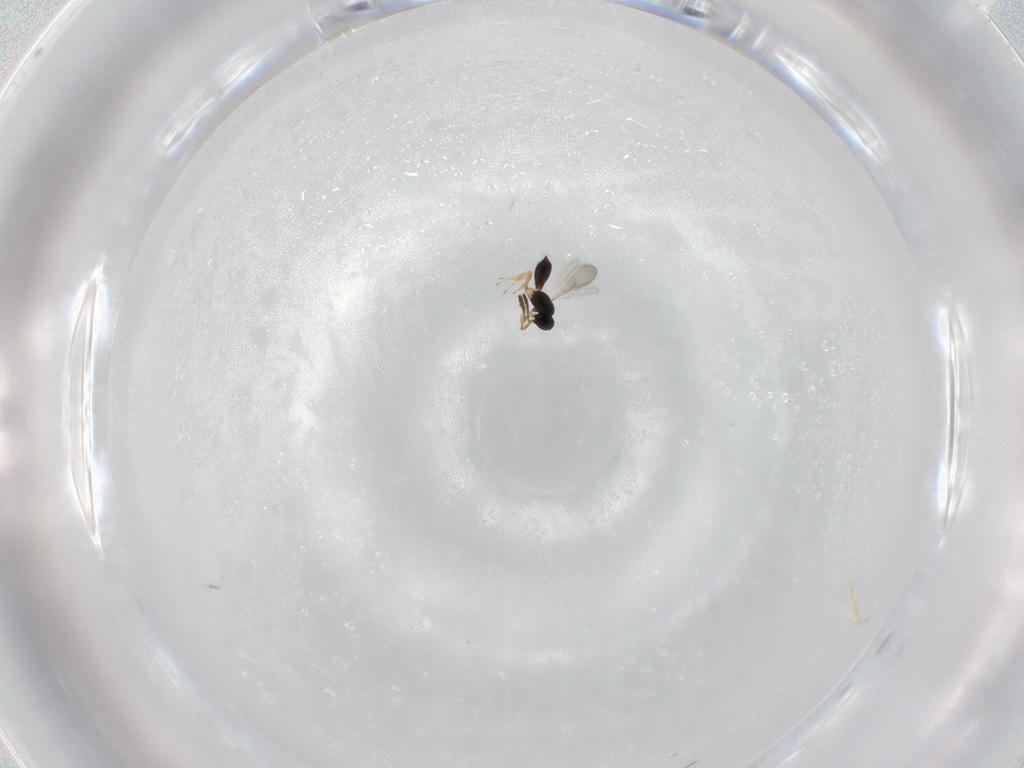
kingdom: Animalia
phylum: Arthropoda
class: Insecta
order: Hymenoptera
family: Scelionidae
